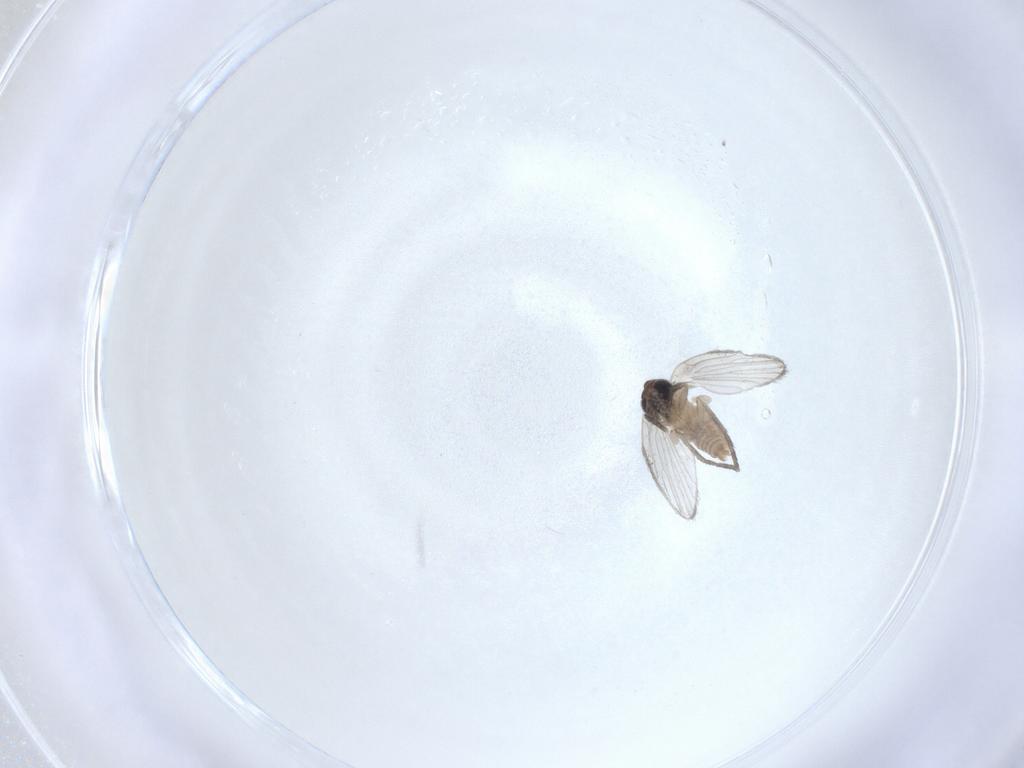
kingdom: Animalia
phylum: Arthropoda
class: Insecta
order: Diptera
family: Psychodidae
